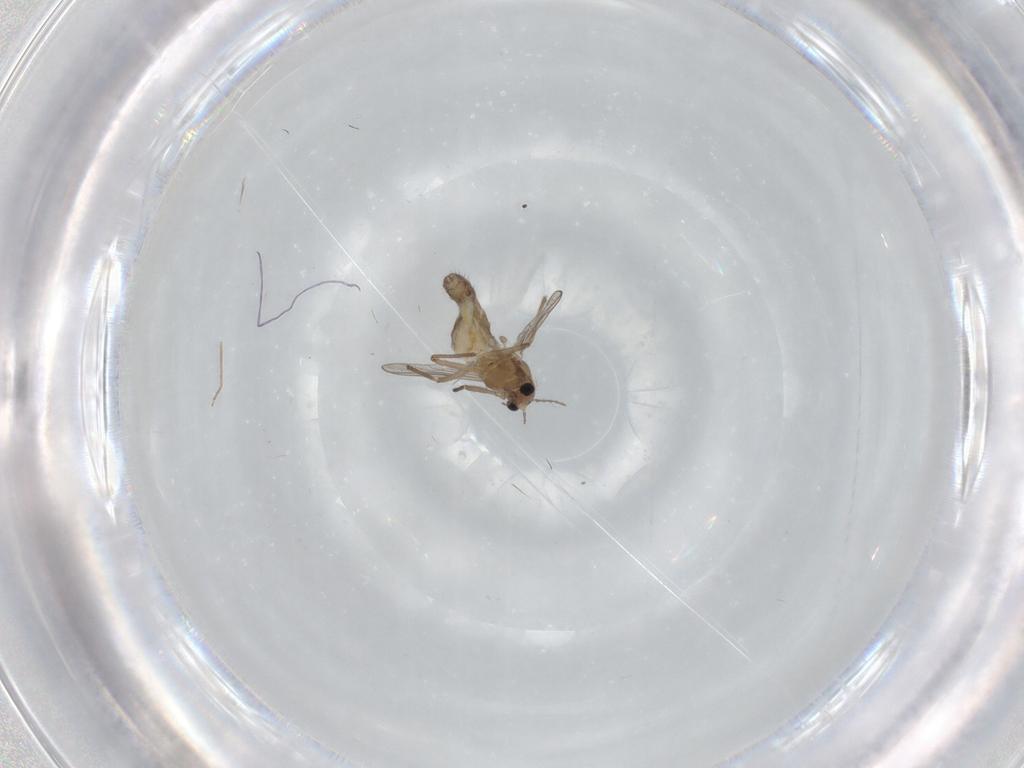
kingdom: Animalia
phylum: Arthropoda
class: Insecta
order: Diptera
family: Chironomidae
